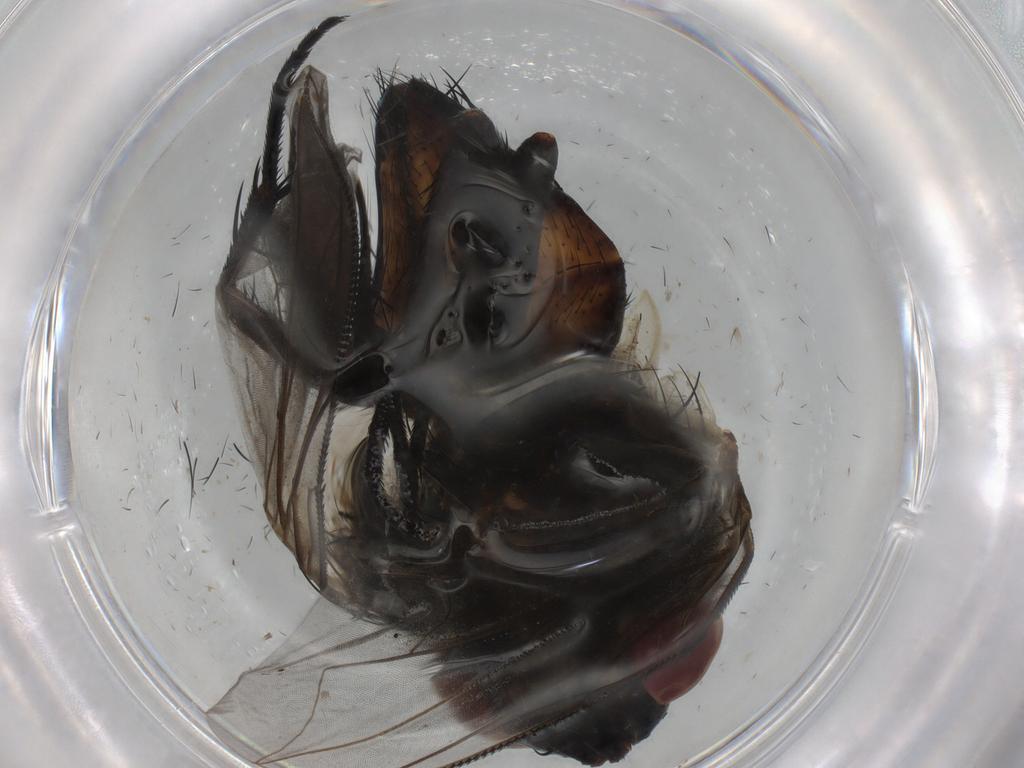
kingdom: Animalia
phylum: Arthropoda
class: Insecta
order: Diptera
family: Tachinidae
